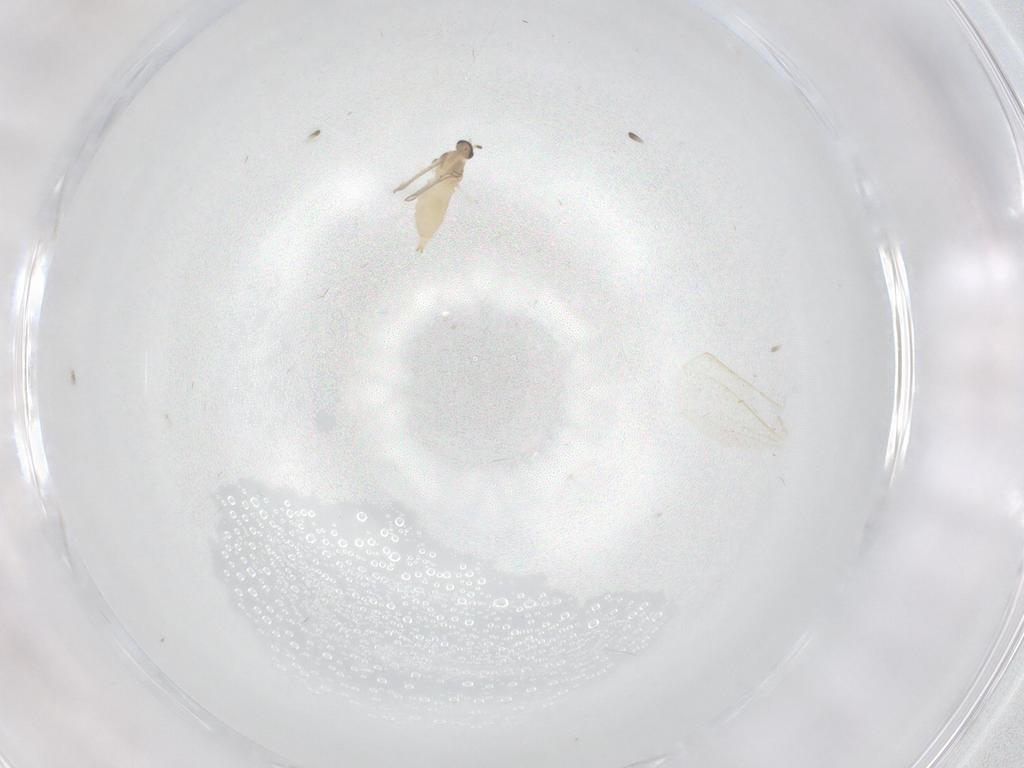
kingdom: Animalia
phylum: Arthropoda
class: Insecta
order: Diptera
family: Cecidomyiidae
